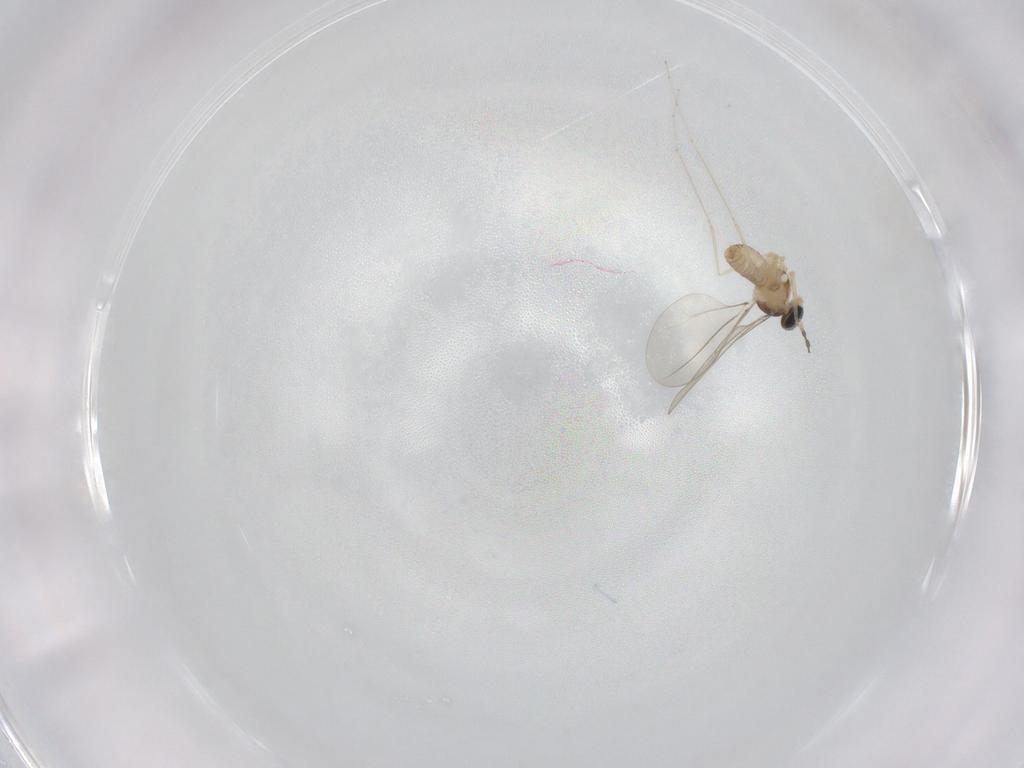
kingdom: Animalia
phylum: Arthropoda
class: Insecta
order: Diptera
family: Cecidomyiidae
